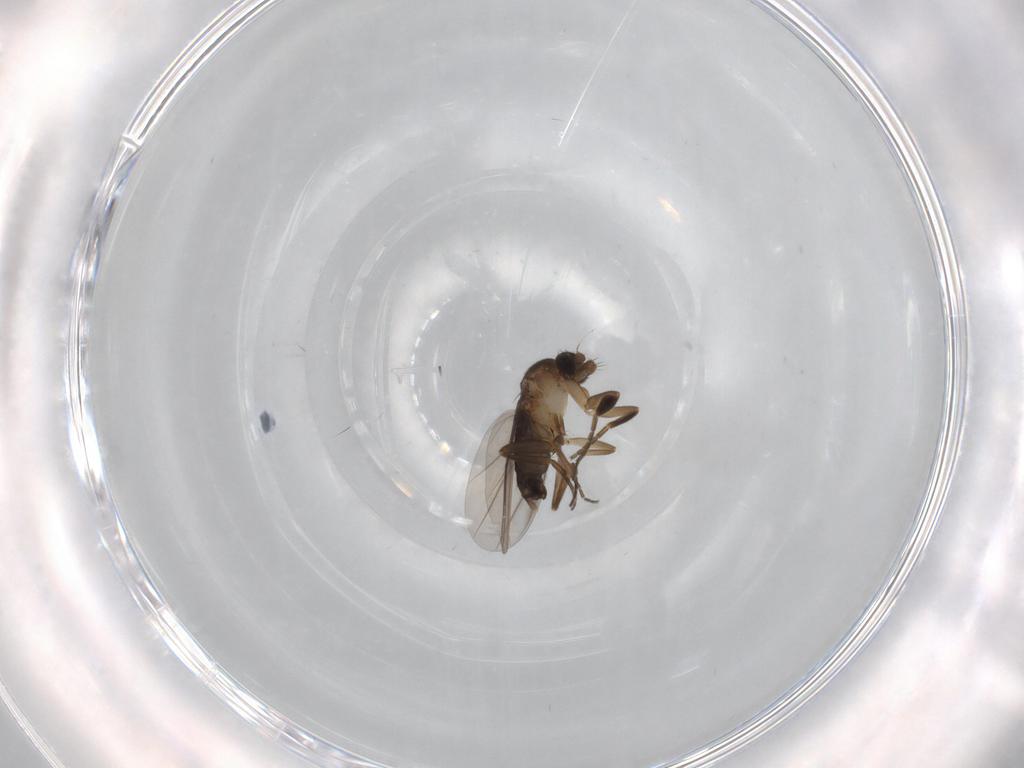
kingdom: Animalia
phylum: Arthropoda
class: Insecta
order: Diptera
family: Phoridae
